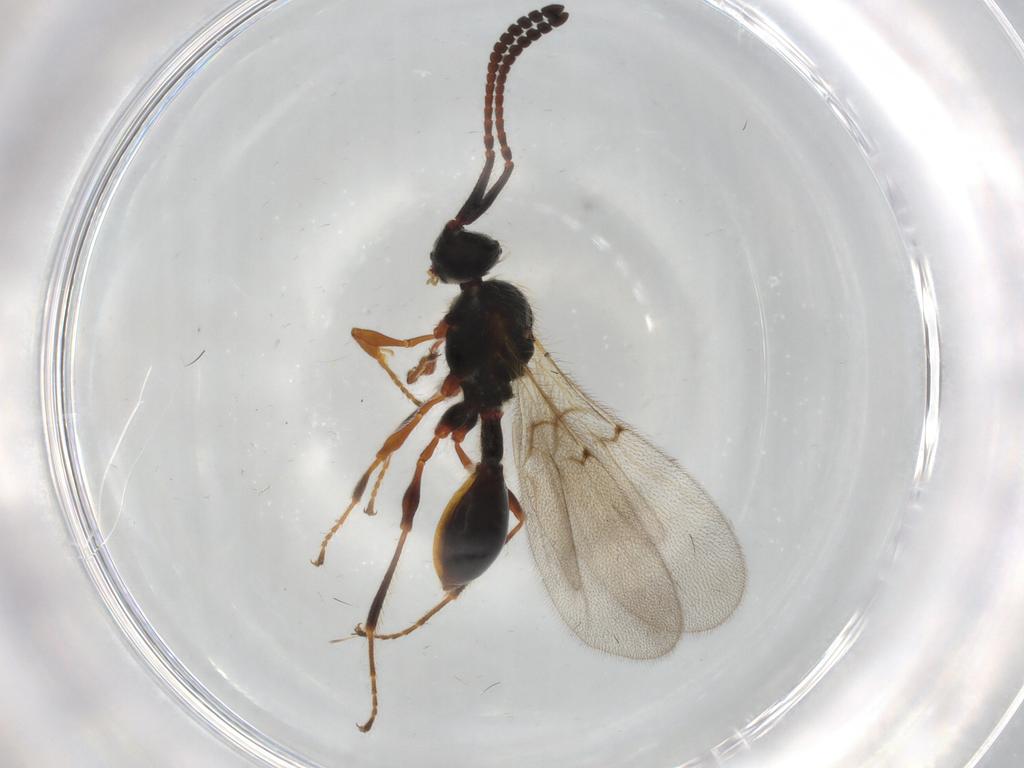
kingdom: Animalia
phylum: Arthropoda
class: Insecta
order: Hymenoptera
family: Diapriidae
